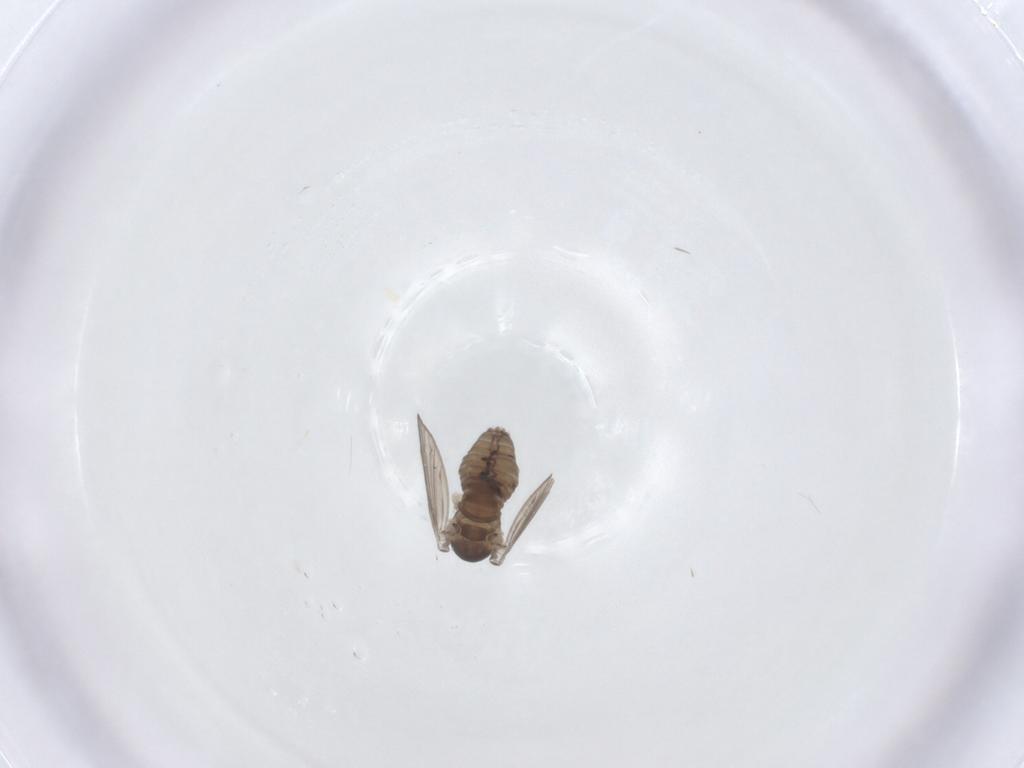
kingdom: Animalia
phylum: Arthropoda
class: Insecta
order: Diptera
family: Psychodidae
